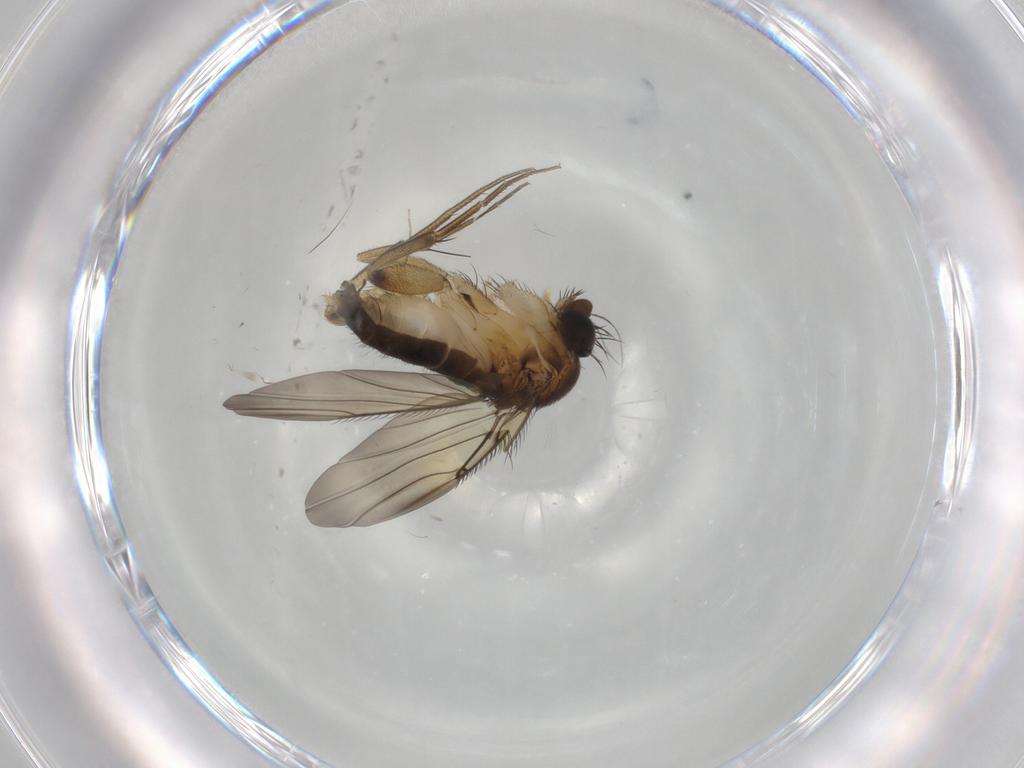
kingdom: Animalia
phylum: Arthropoda
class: Insecta
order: Diptera
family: Phoridae
